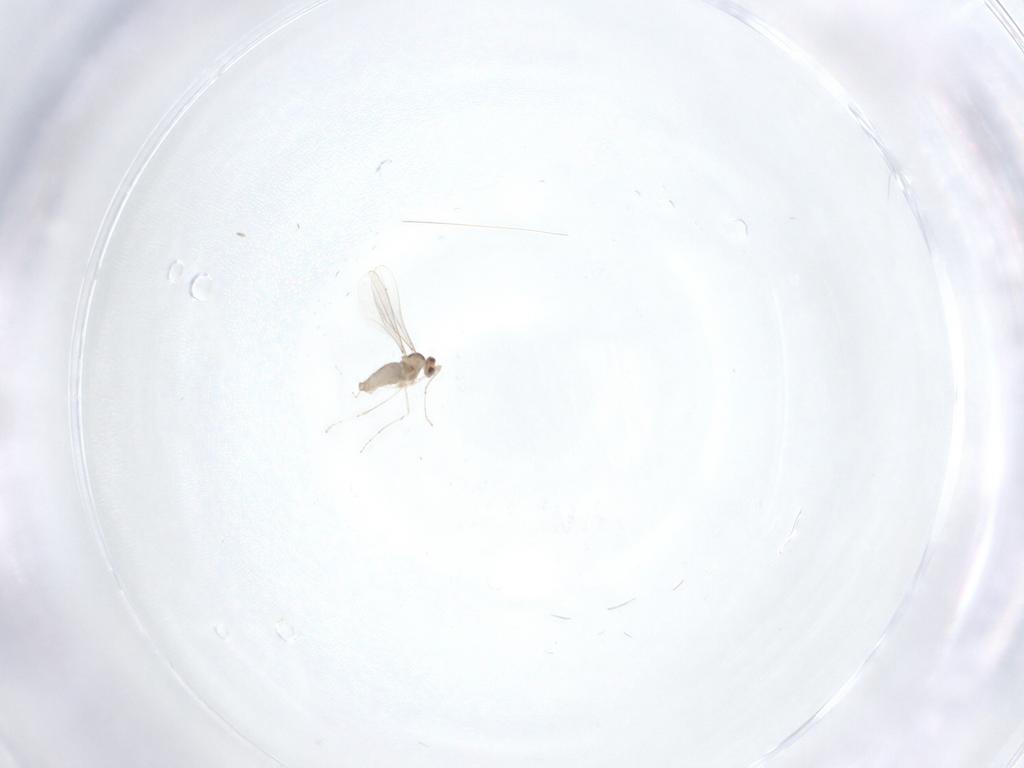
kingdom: Animalia
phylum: Arthropoda
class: Insecta
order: Diptera
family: Ceratopogonidae
